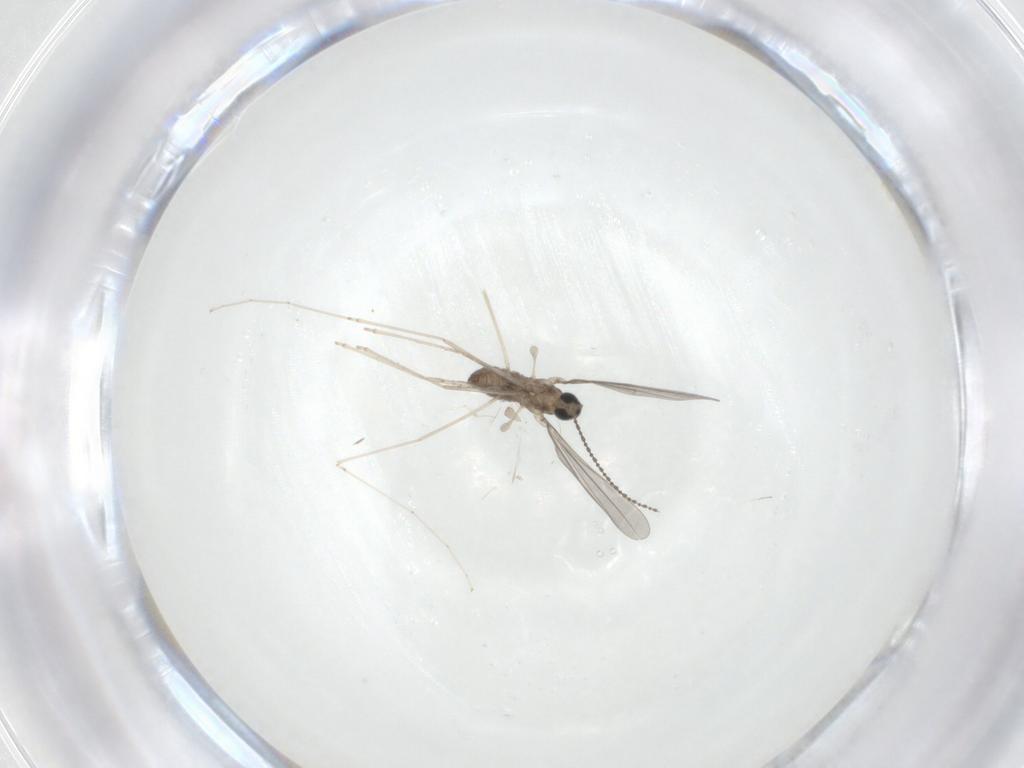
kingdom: Animalia
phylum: Arthropoda
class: Insecta
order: Diptera
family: Cecidomyiidae
